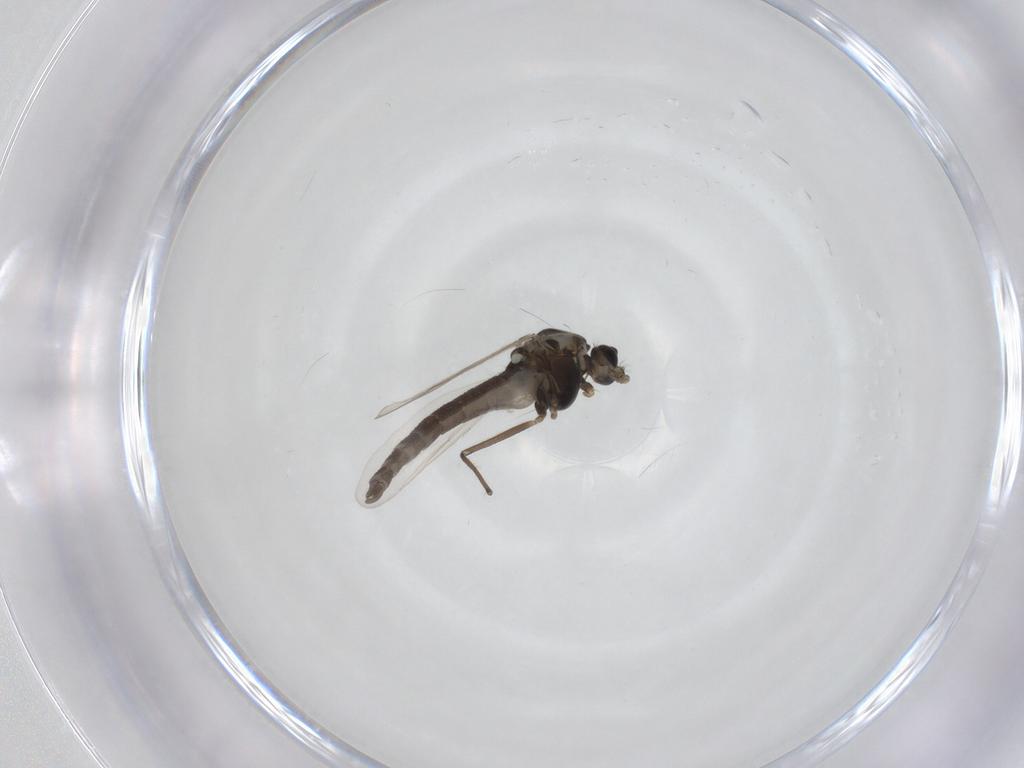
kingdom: Animalia
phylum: Arthropoda
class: Insecta
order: Diptera
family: Chironomidae
